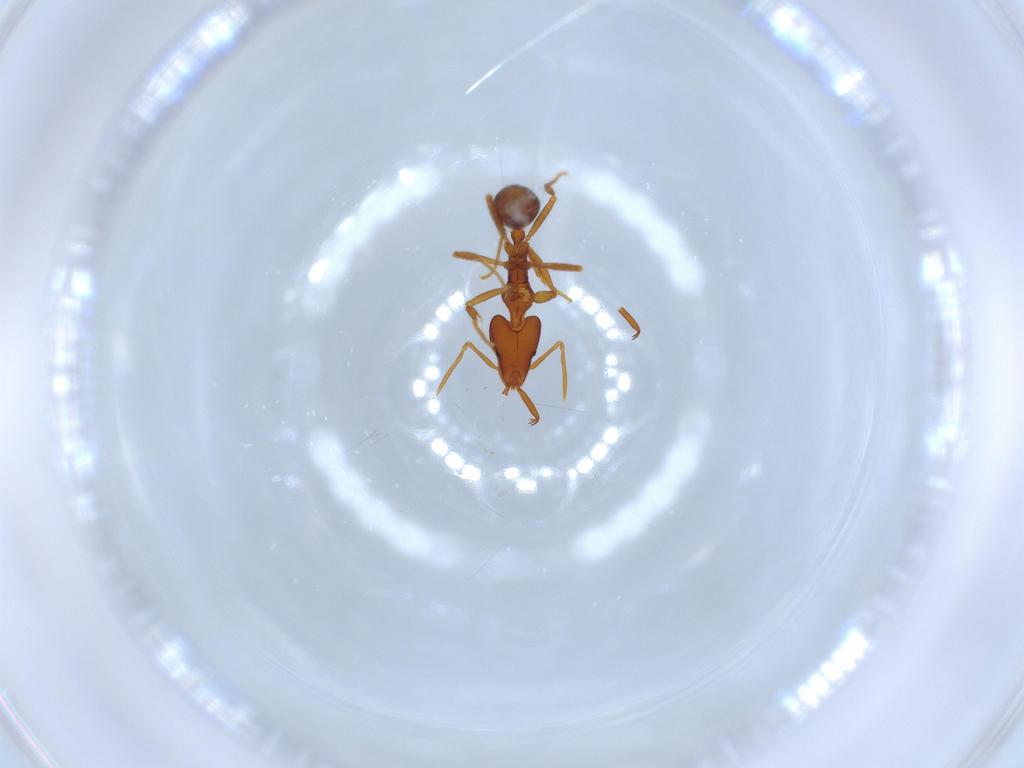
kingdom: Animalia
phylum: Arthropoda
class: Insecta
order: Hymenoptera
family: Formicidae
